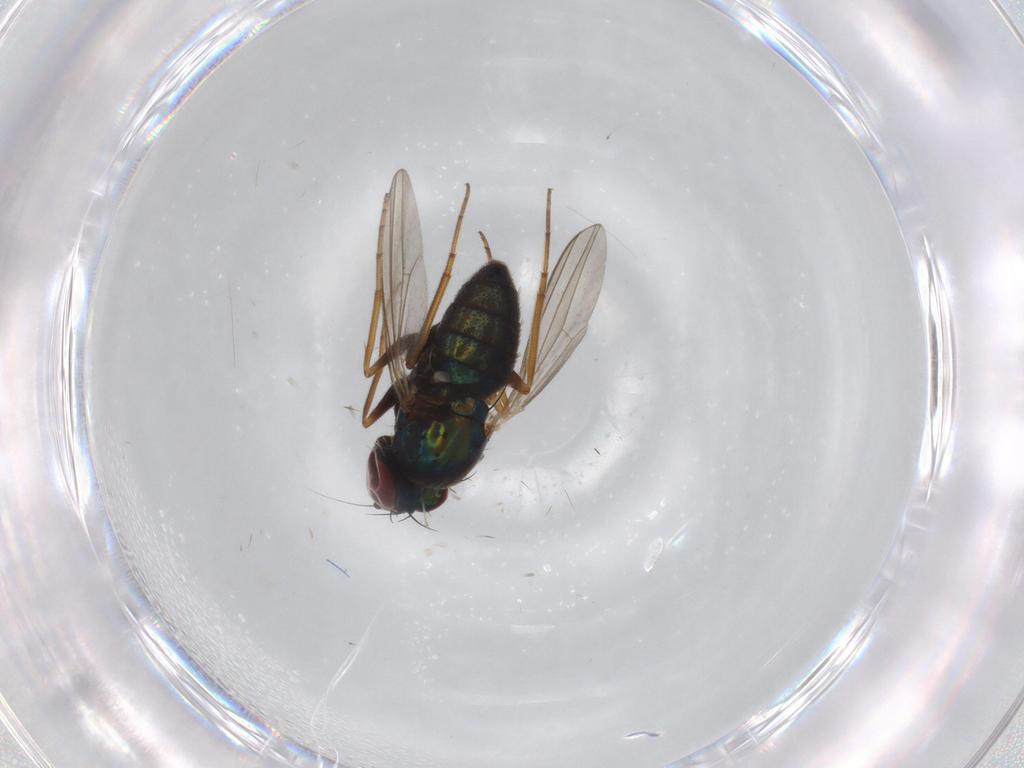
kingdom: Animalia
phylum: Arthropoda
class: Insecta
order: Diptera
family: Dolichopodidae
